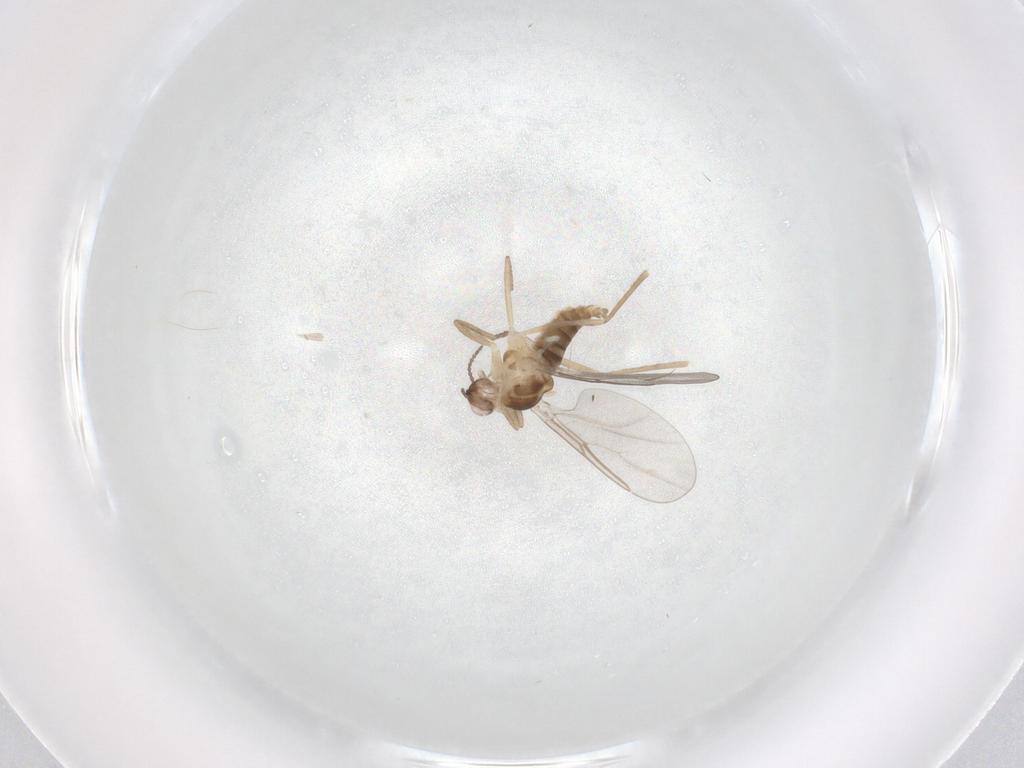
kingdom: Animalia
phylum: Arthropoda
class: Insecta
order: Diptera
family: Cecidomyiidae
